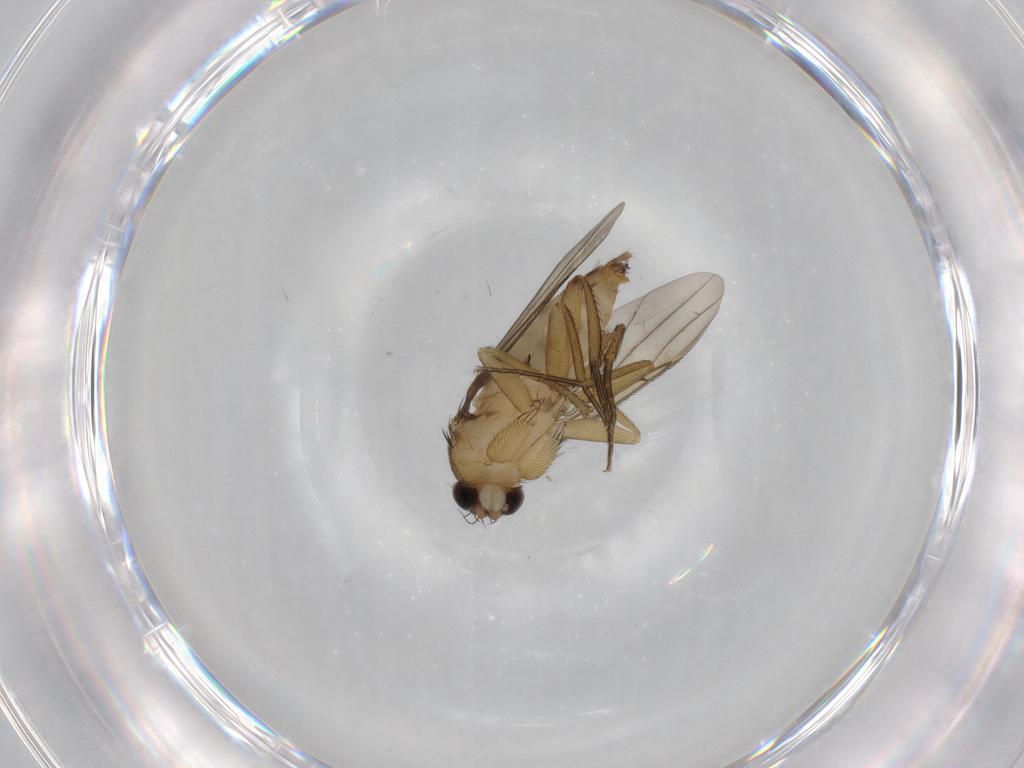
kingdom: Animalia
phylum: Arthropoda
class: Insecta
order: Diptera
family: Phoridae
